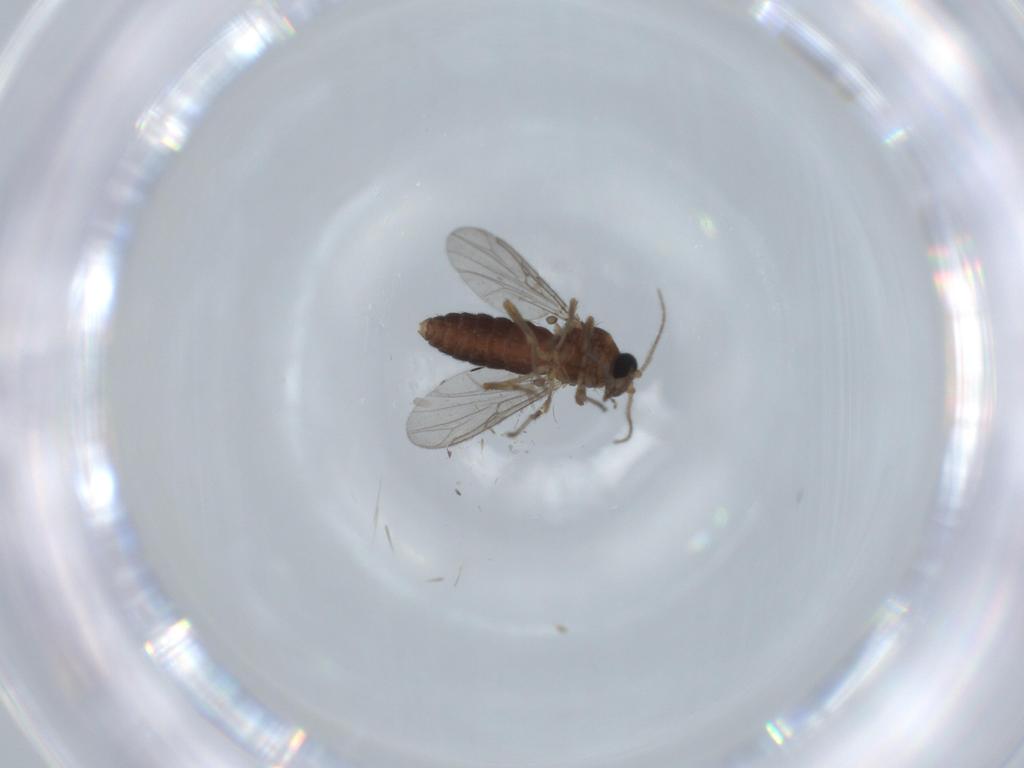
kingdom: Animalia
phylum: Arthropoda
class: Insecta
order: Diptera
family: Ceratopogonidae
